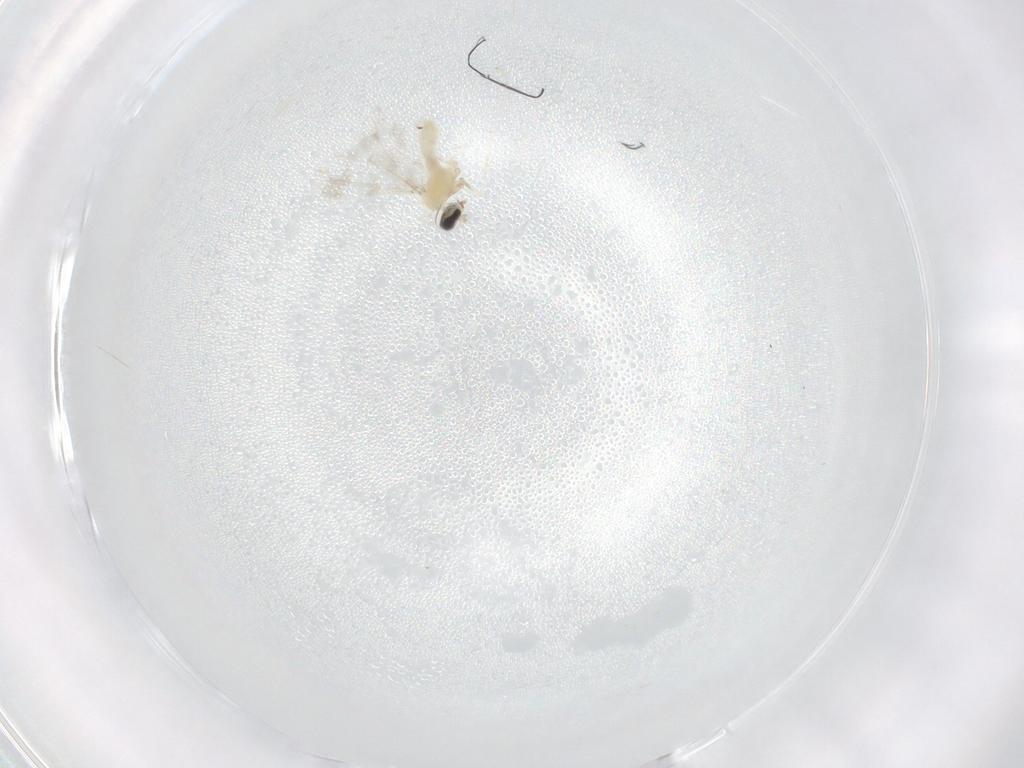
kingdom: Animalia
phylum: Arthropoda
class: Insecta
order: Diptera
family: Cecidomyiidae
